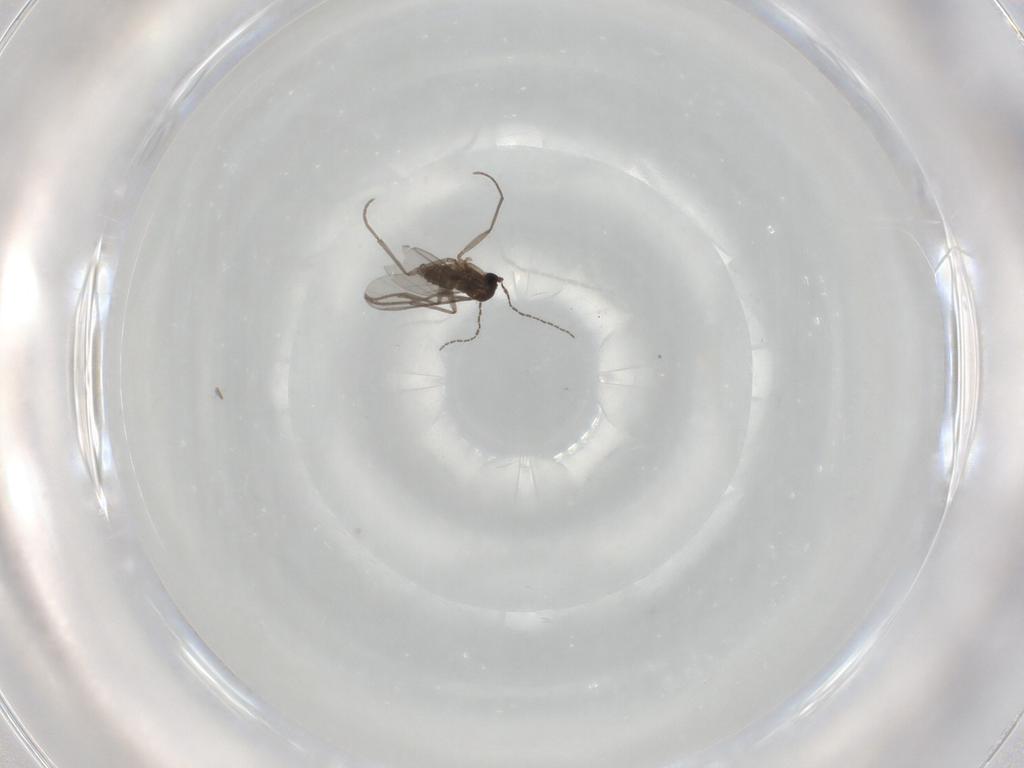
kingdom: Animalia
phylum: Arthropoda
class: Insecta
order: Diptera
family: Sciaridae
